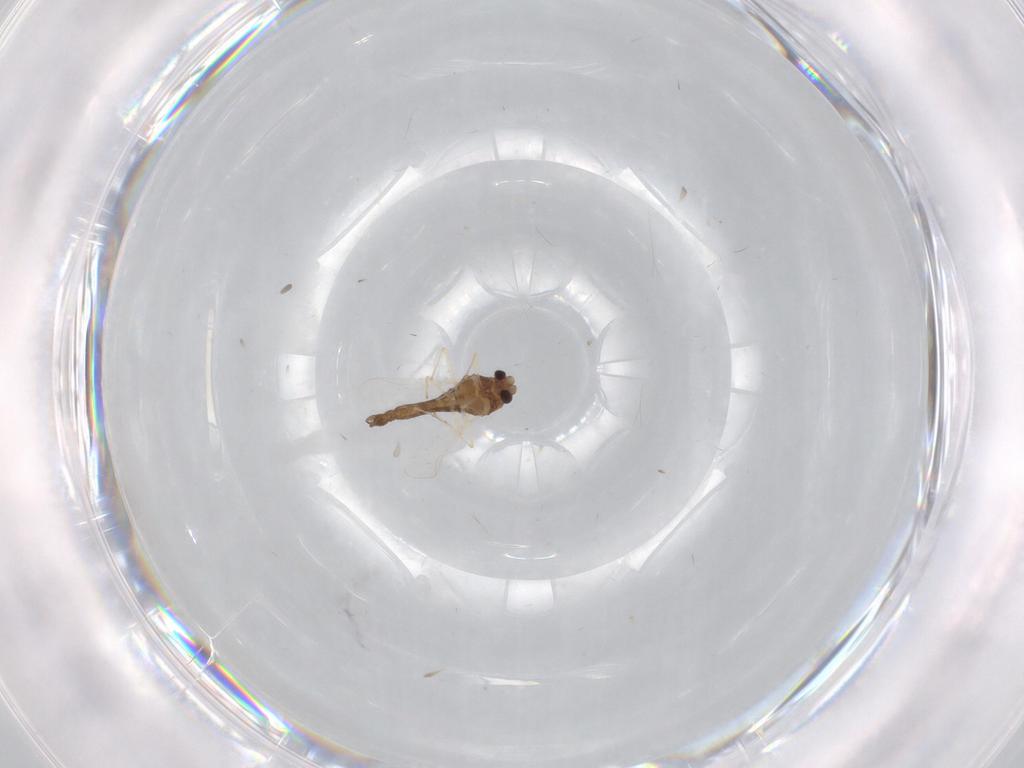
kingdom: Animalia
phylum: Arthropoda
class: Insecta
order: Diptera
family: Chironomidae
